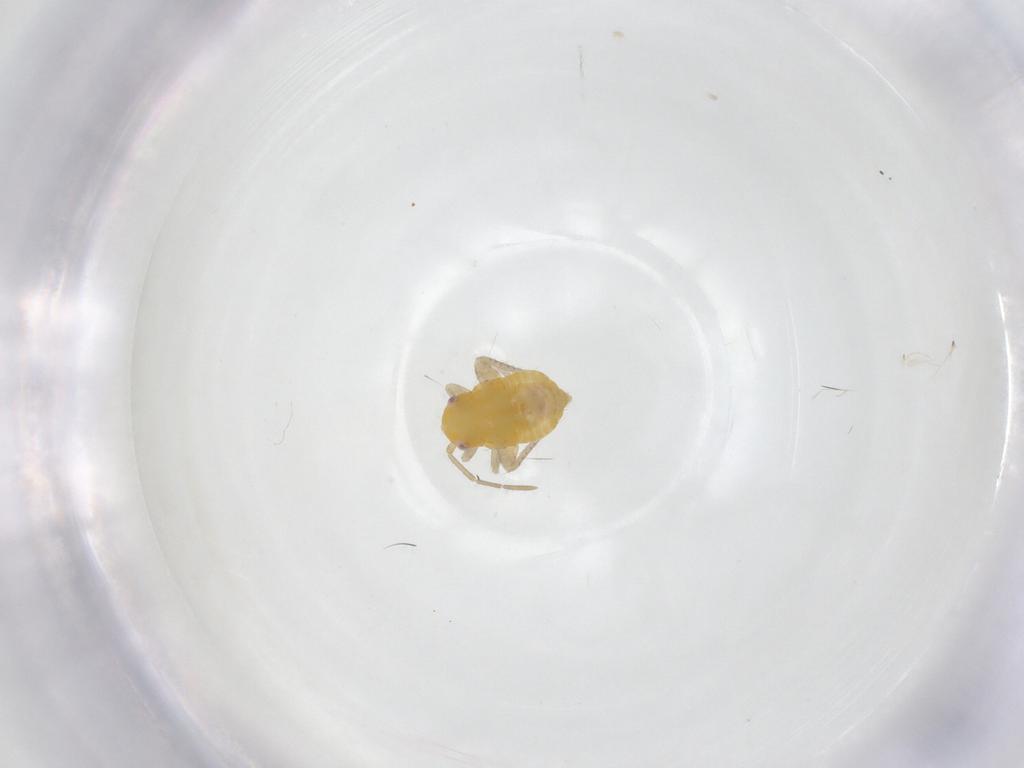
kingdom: Animalia
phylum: Arthropoda
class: Insecta
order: Hemiptera
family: Miridae
